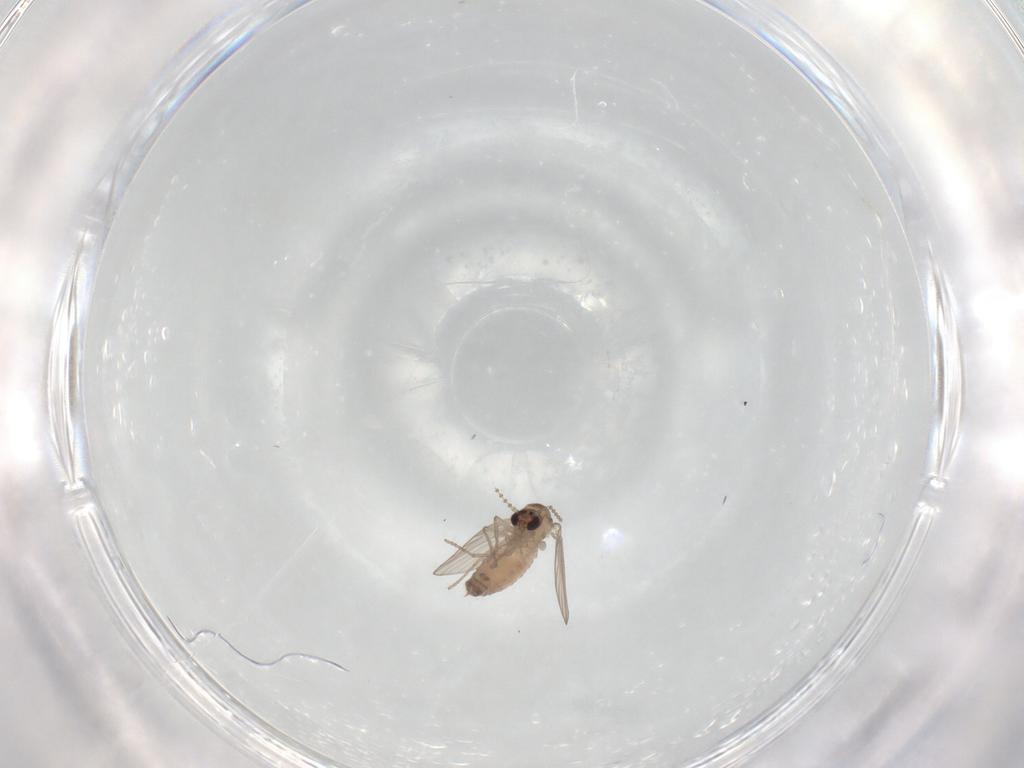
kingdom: Animalia
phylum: Arthropoda
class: Insecta
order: Diptera
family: Psychodidae
